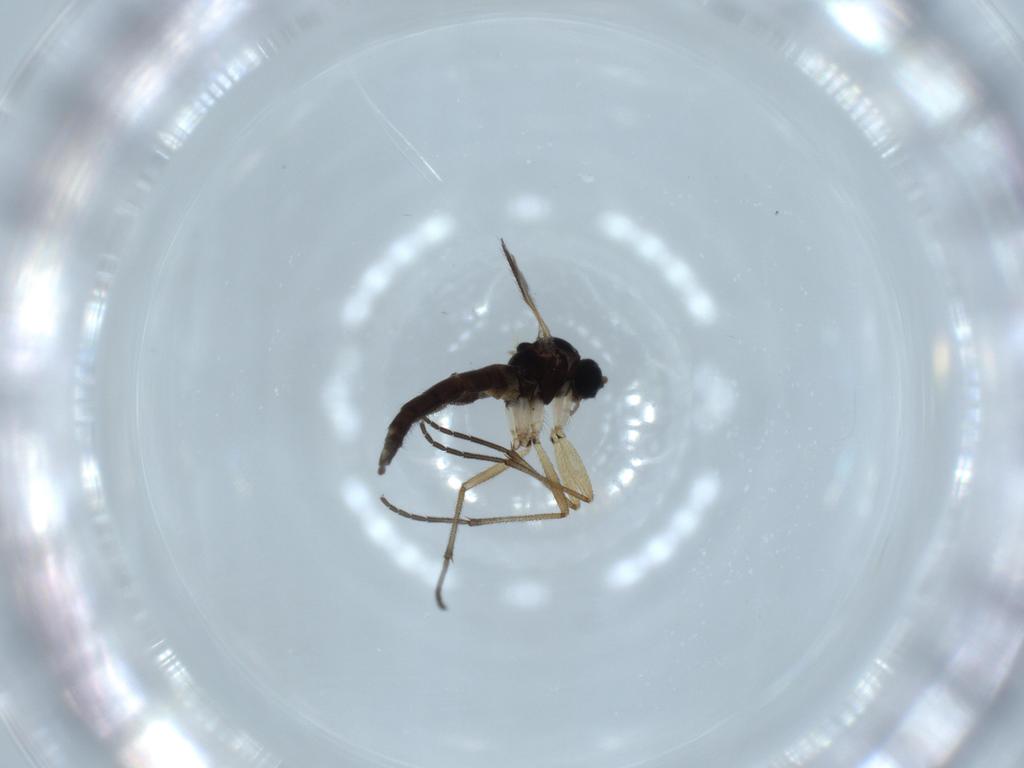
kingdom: Animalia
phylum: Arthropoda
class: Insecta
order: Diptera
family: Sciaridae
